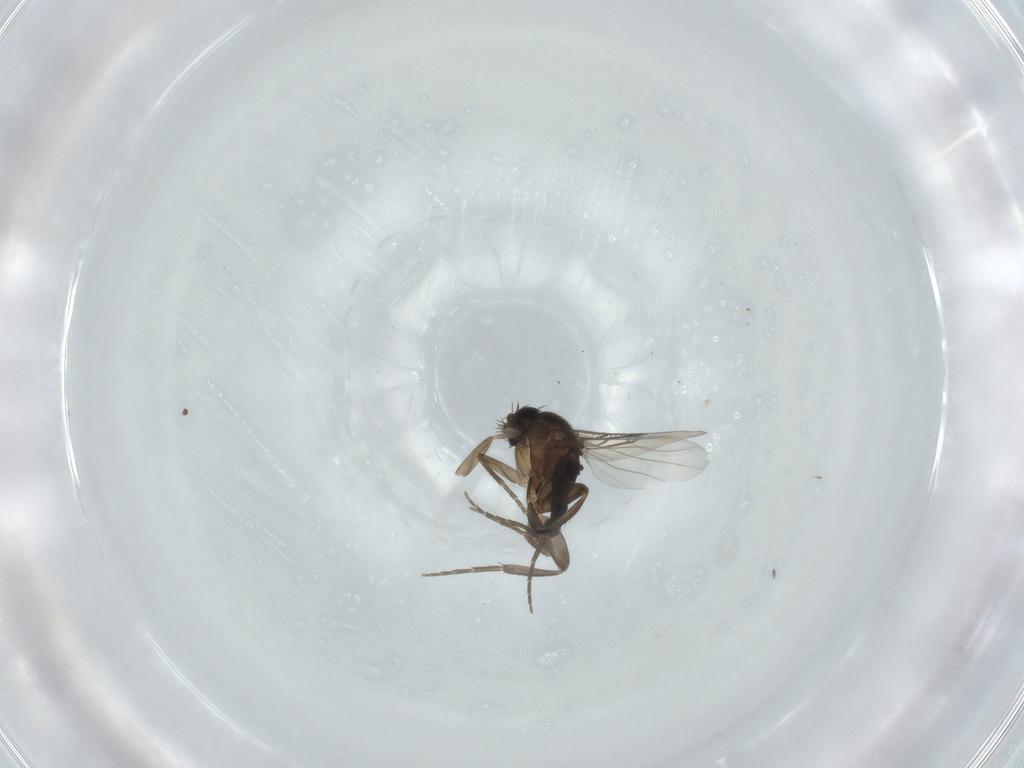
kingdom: Animalia
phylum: Arthropoda
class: Insecta
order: Diptera
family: Phoridae
